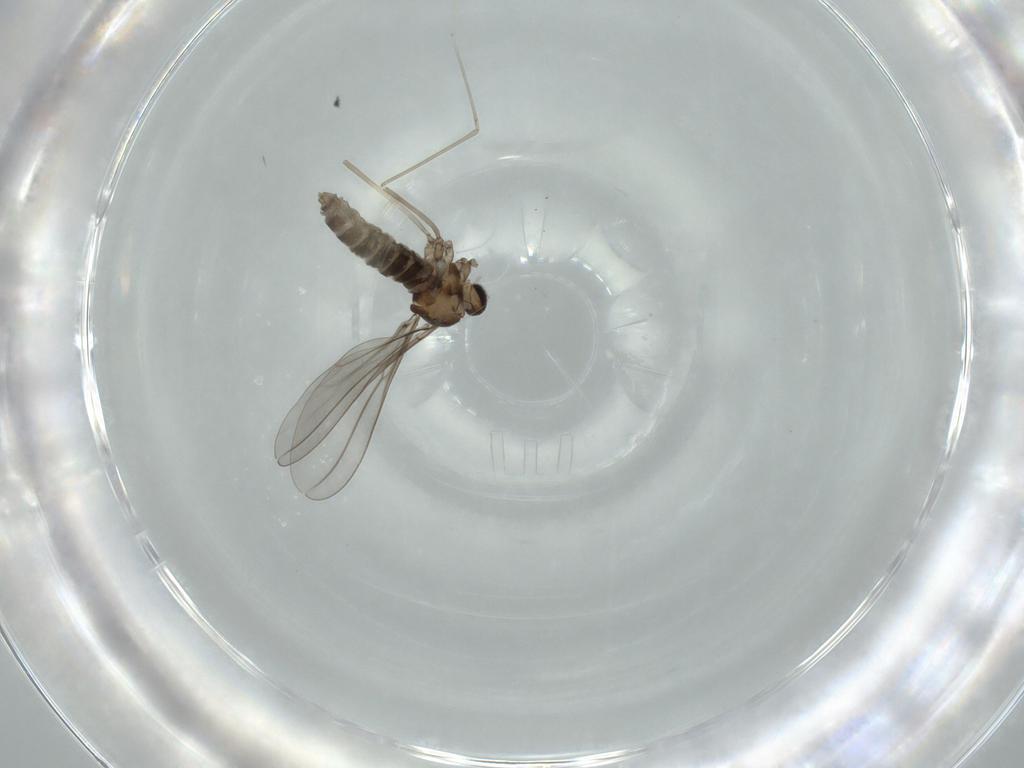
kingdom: Animalia
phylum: Arthropoda
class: Insecta
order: Diptera
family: Cecidomyiidae
